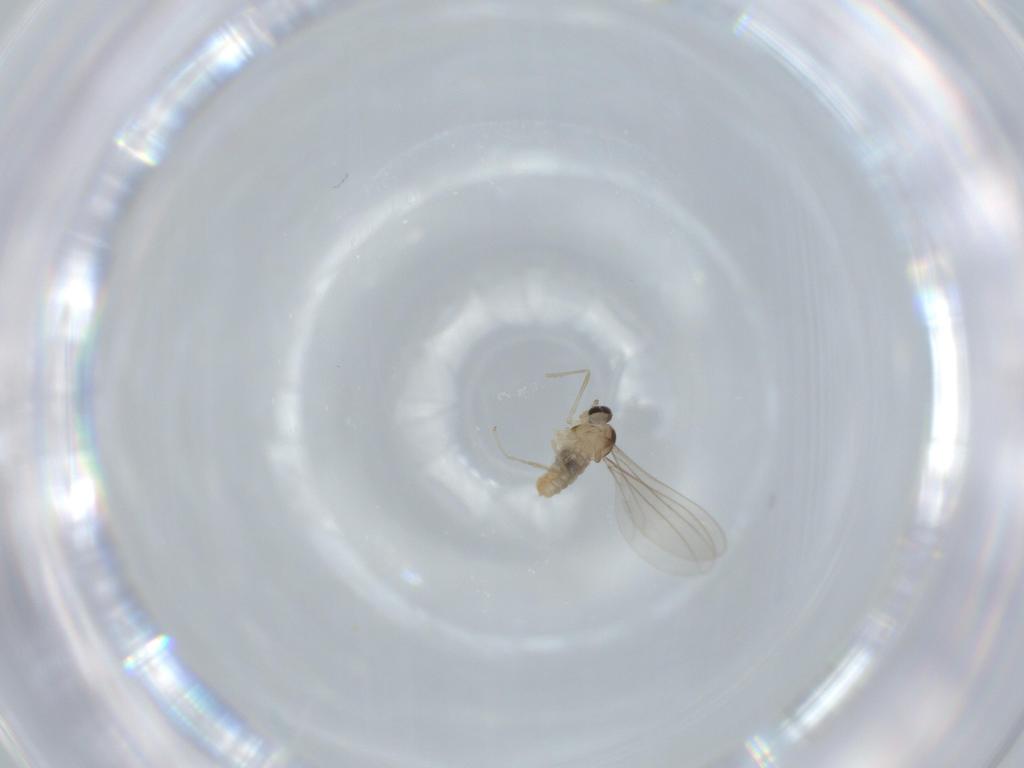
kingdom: Animalia
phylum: Arthropoda
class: Insecta
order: Diptera
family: Cecidomyiidae
